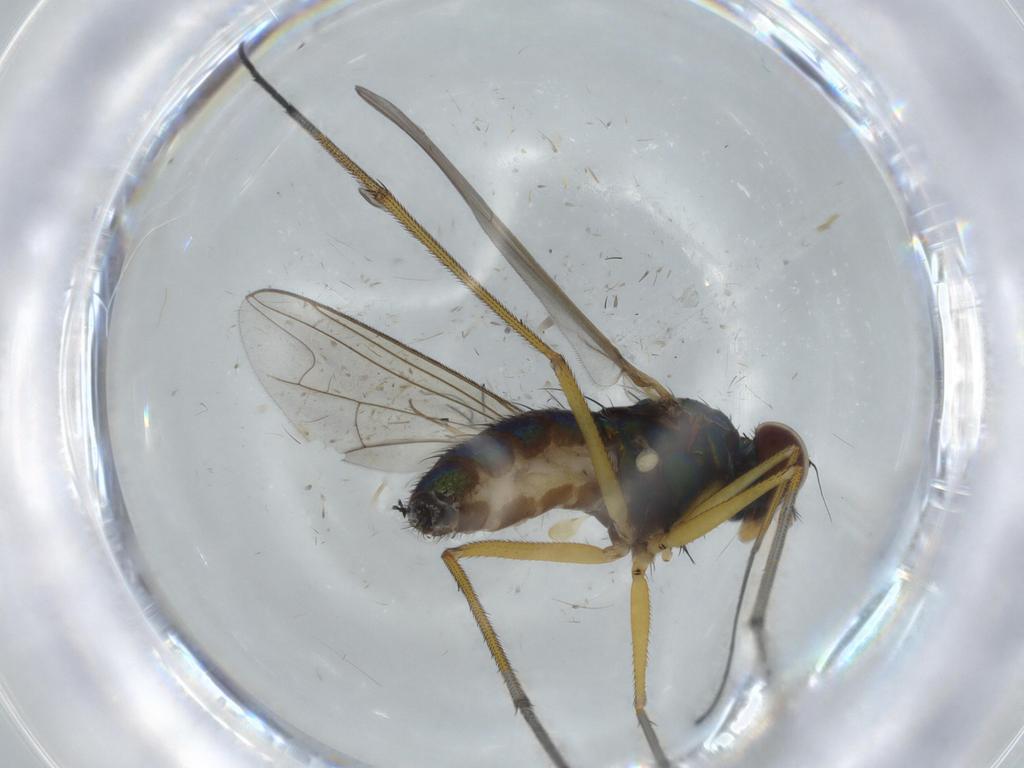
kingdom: Animalia
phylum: Arthropoda
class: Insecta
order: Diptera
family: Dolichopodidae
